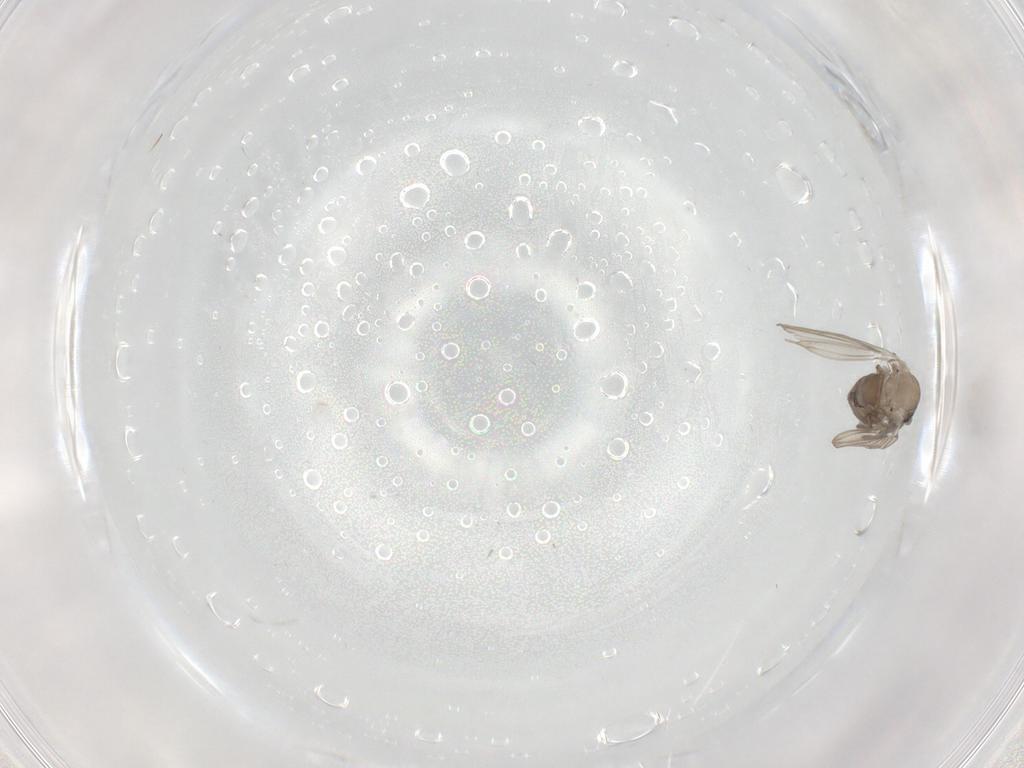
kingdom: Animalia
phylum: Arthropoda
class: Insecta
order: Diptera
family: Psychodidae
